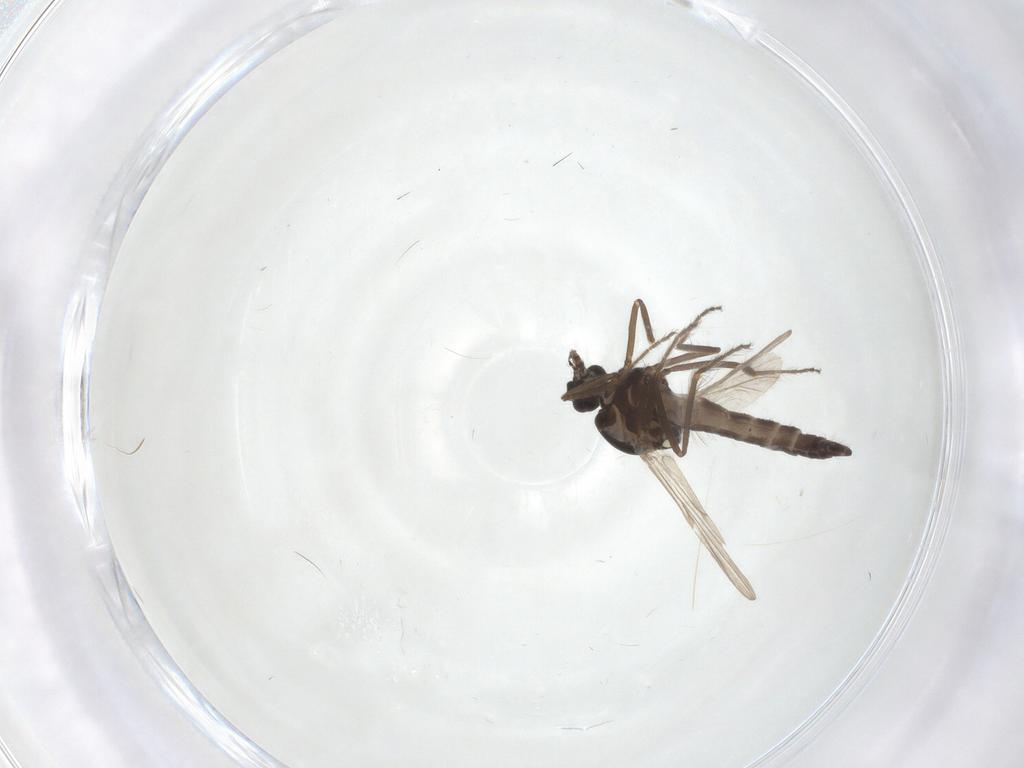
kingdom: Animalia
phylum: Arthropoda
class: Insecta
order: Diptera
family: Ceratopogonidae
